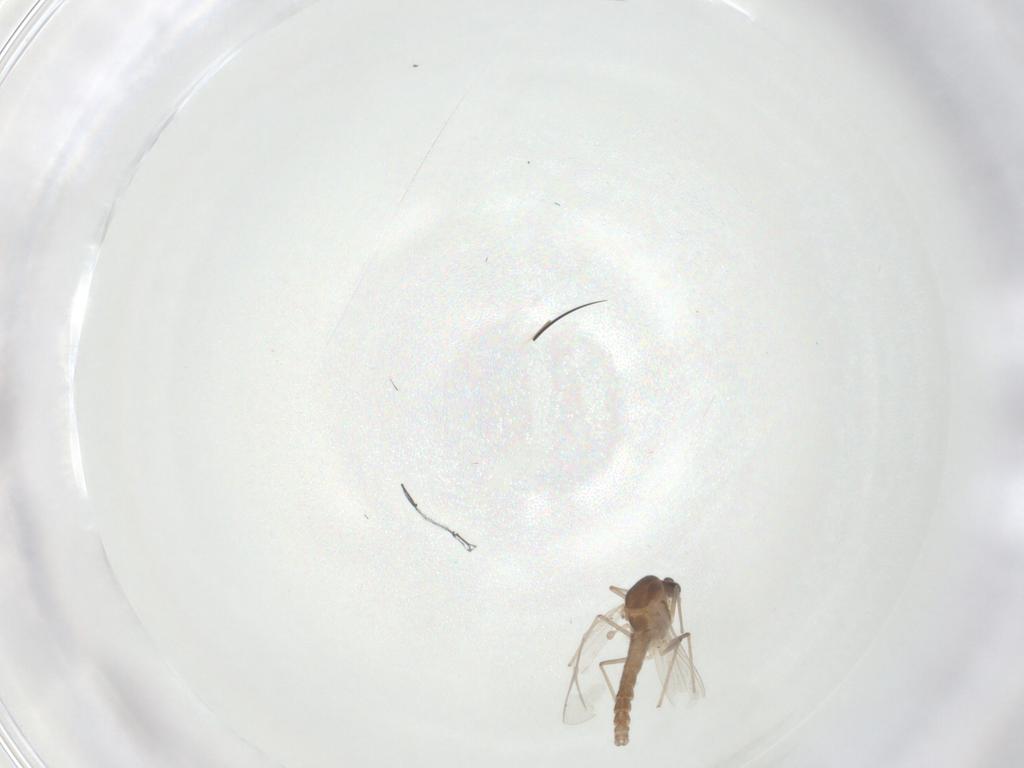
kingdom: Animalia
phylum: Arthropoda
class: Insecta
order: Diptera
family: Chironomidae
